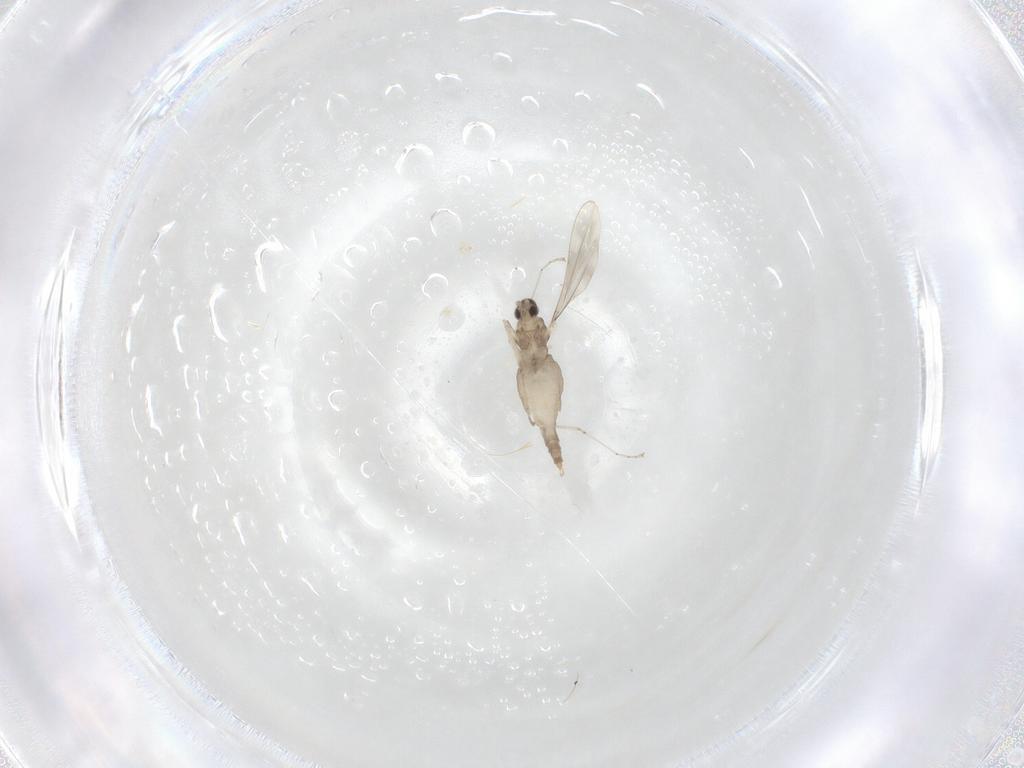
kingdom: Animalia
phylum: Arthropoda
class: Insecta
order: Diptera
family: Cecidomyiidae
